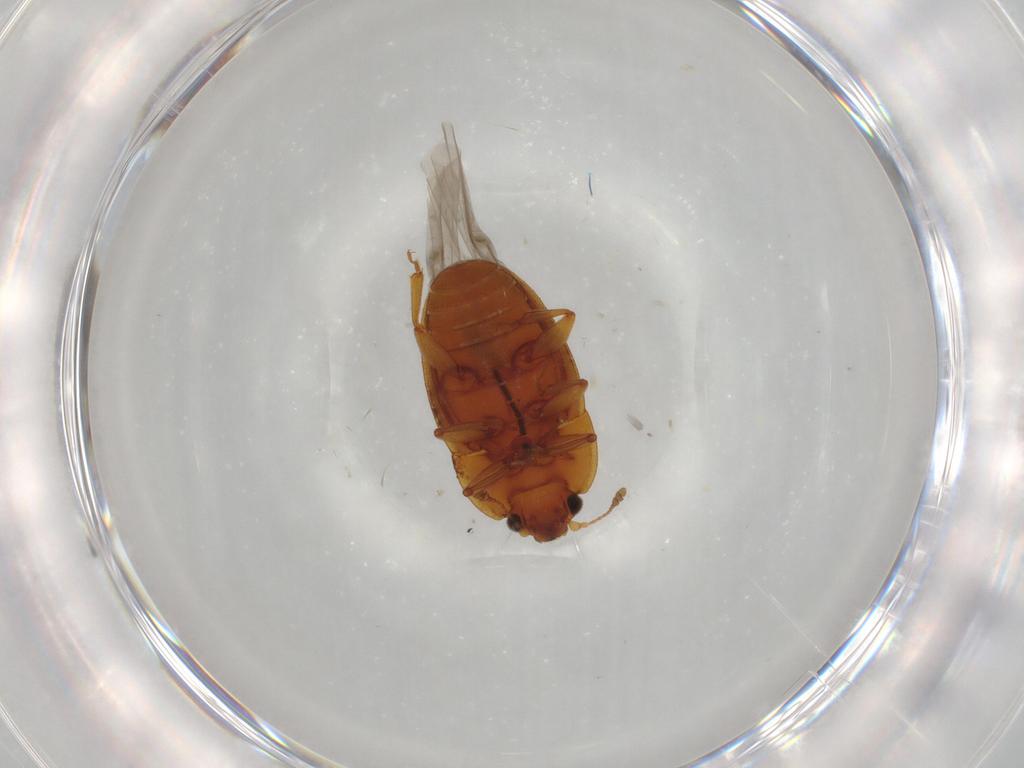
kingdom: Animalia
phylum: Arthropoda
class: Insecta
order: Coleoptera
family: Nitidulidae
